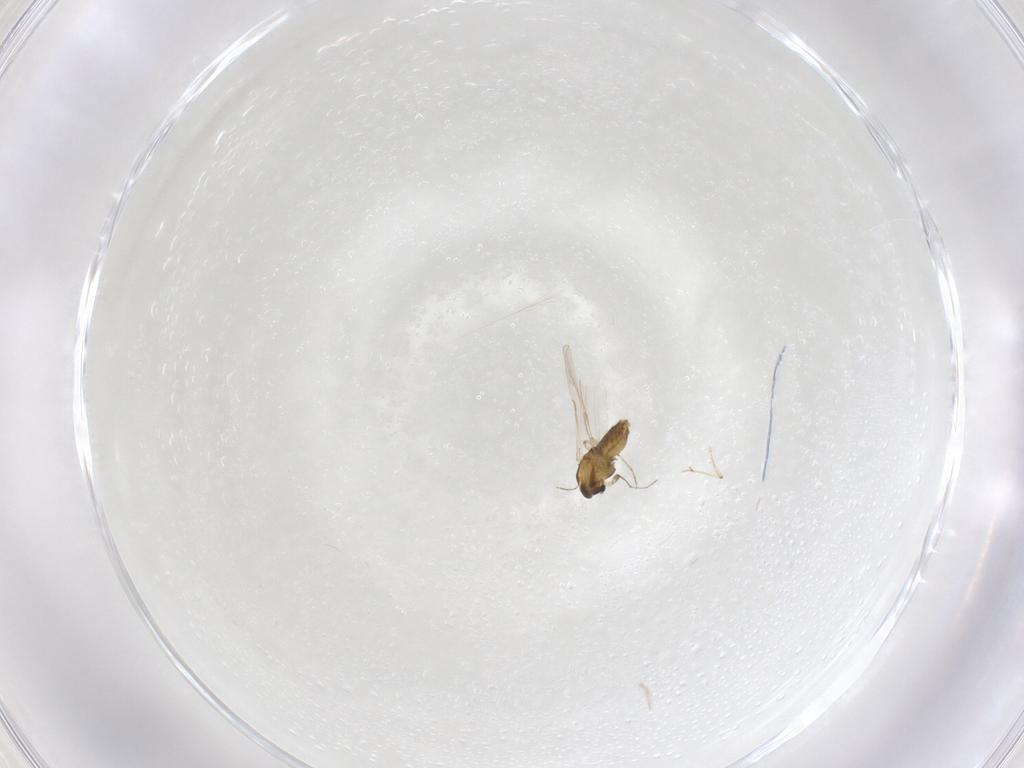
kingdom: Animalia
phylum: Arthropoda
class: Insecta
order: Diptera
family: Chironomidae
